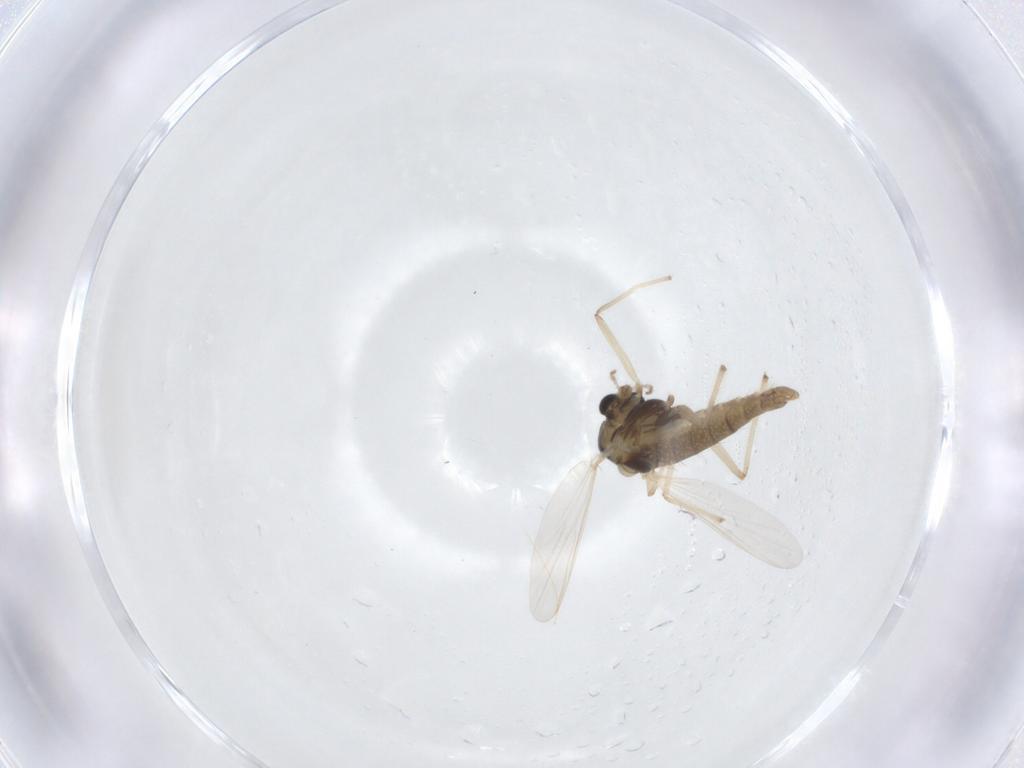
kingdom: Animalia
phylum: Arthropoda
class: Insecta
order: Diptera
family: Chironomidae
